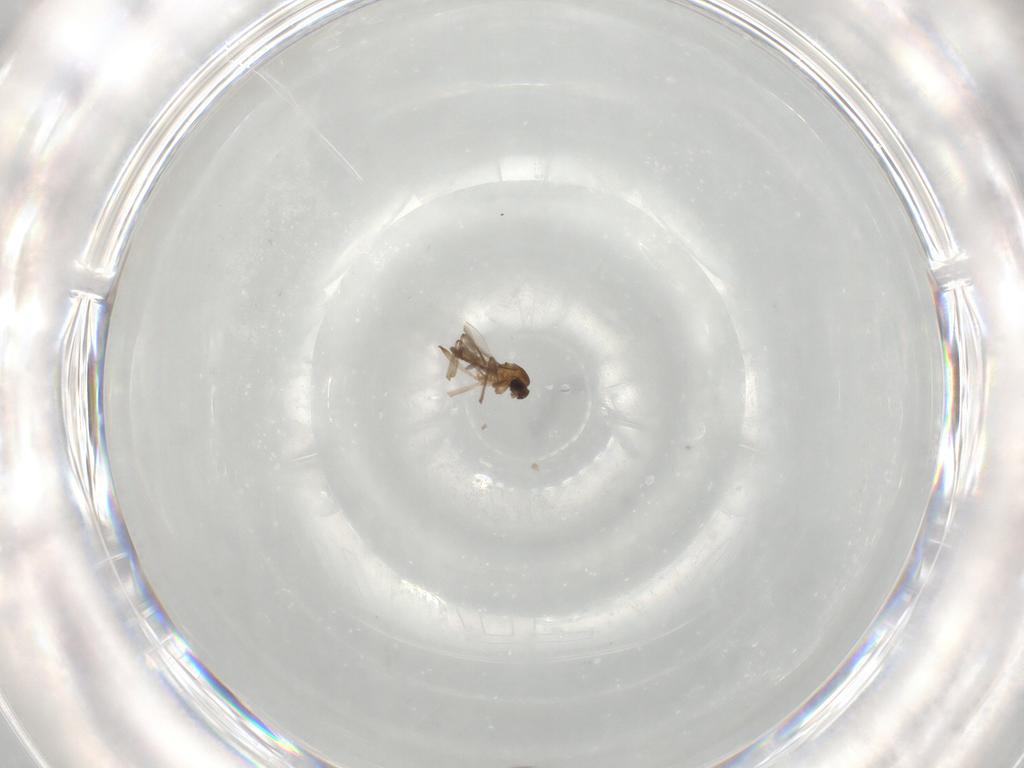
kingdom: Animalia
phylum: Arthropoda
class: Insecta
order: Diptera
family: Cecidomyiidae
